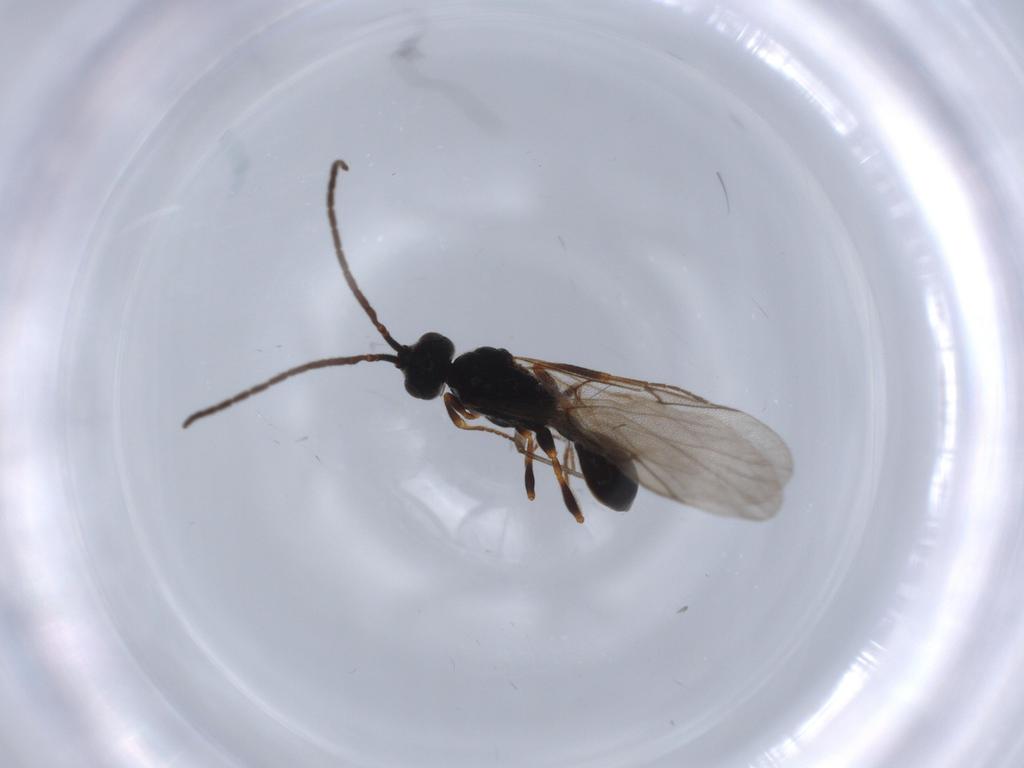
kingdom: Animalia
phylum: Arthropoda
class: Insecta
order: Hymenoptera
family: Diapriidae
